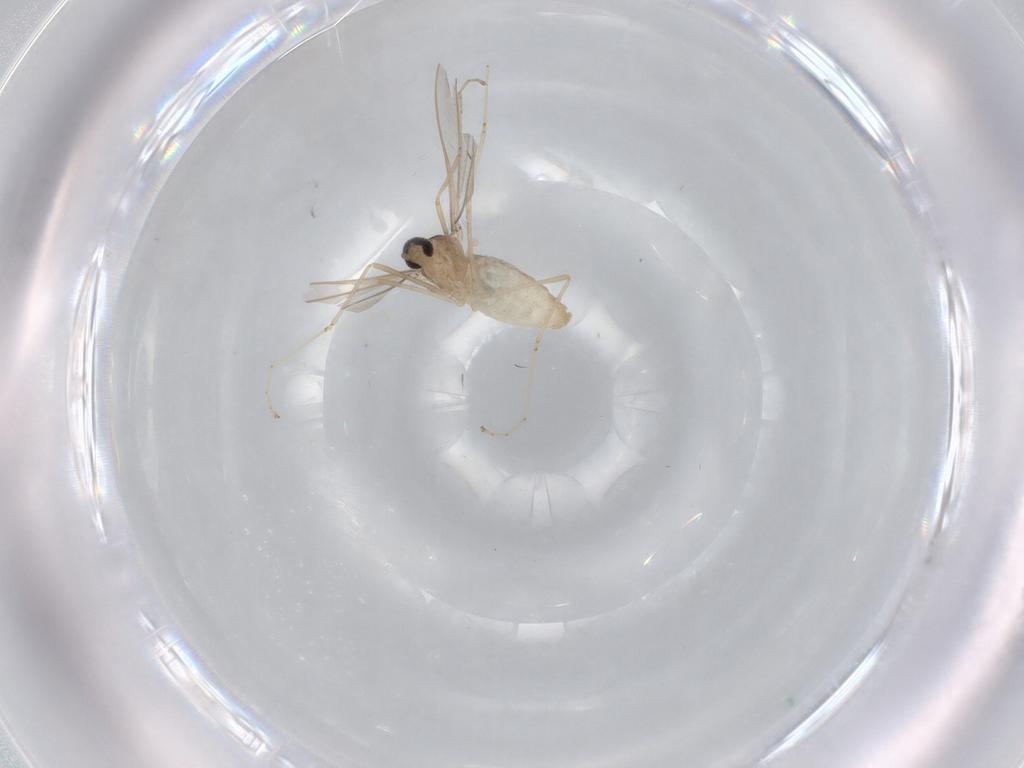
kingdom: Animalia
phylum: Arthropoda
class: Insecta
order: Diptera
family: Cecidomyiidae
